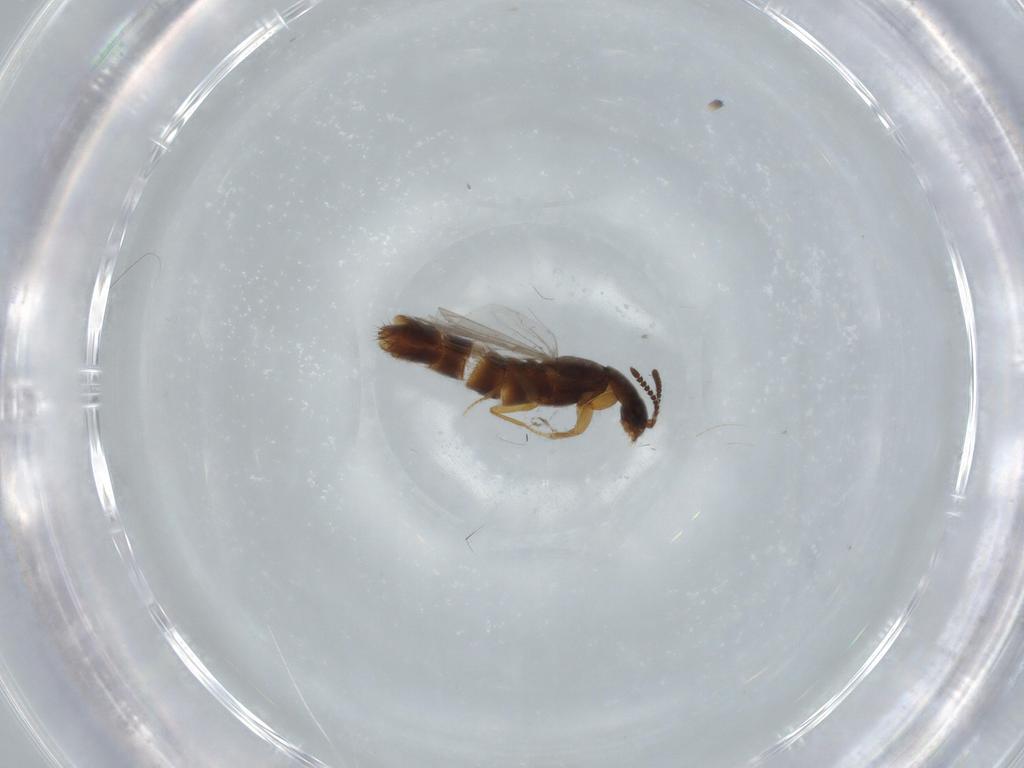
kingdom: Animalia
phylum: Arthropoda
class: Insecta
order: Coleoptera
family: Staphylinidae
